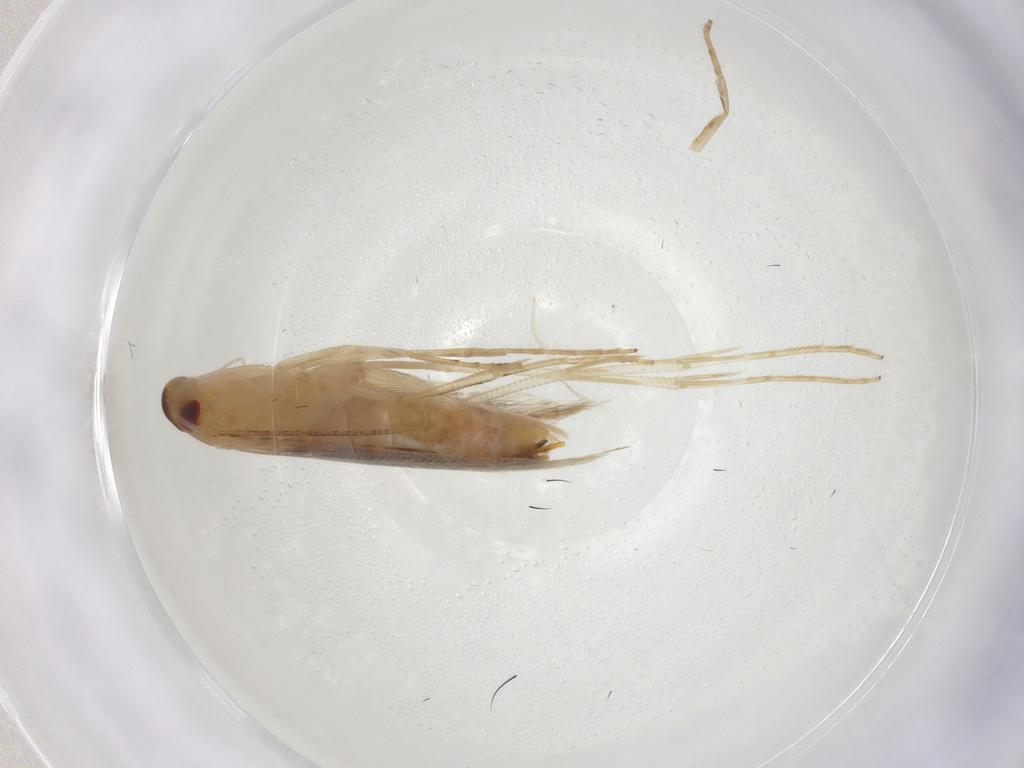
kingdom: Animalia
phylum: Arthropoda
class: Insecta
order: Lepidoptera
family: Cosmopterigidae
